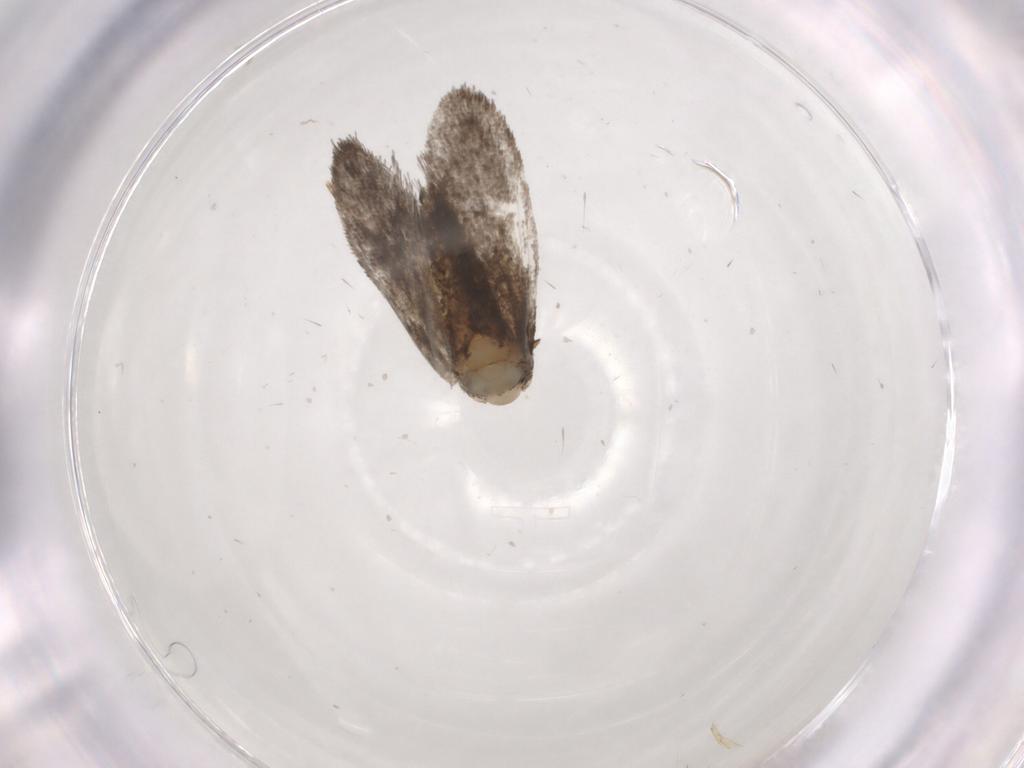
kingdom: Animalia
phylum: Arthropoda
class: Insecta
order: Lepidoptera
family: Psychidae
